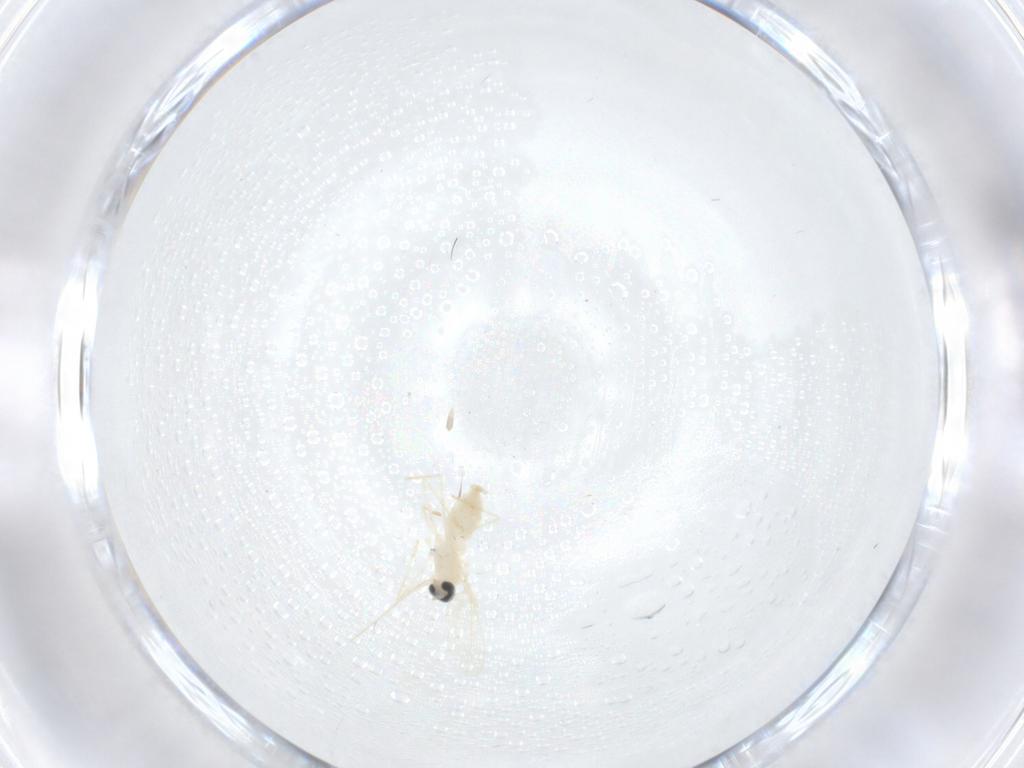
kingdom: Animalia
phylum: Arthropoda
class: Insecta
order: Diptera
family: Cecidomyiidae
